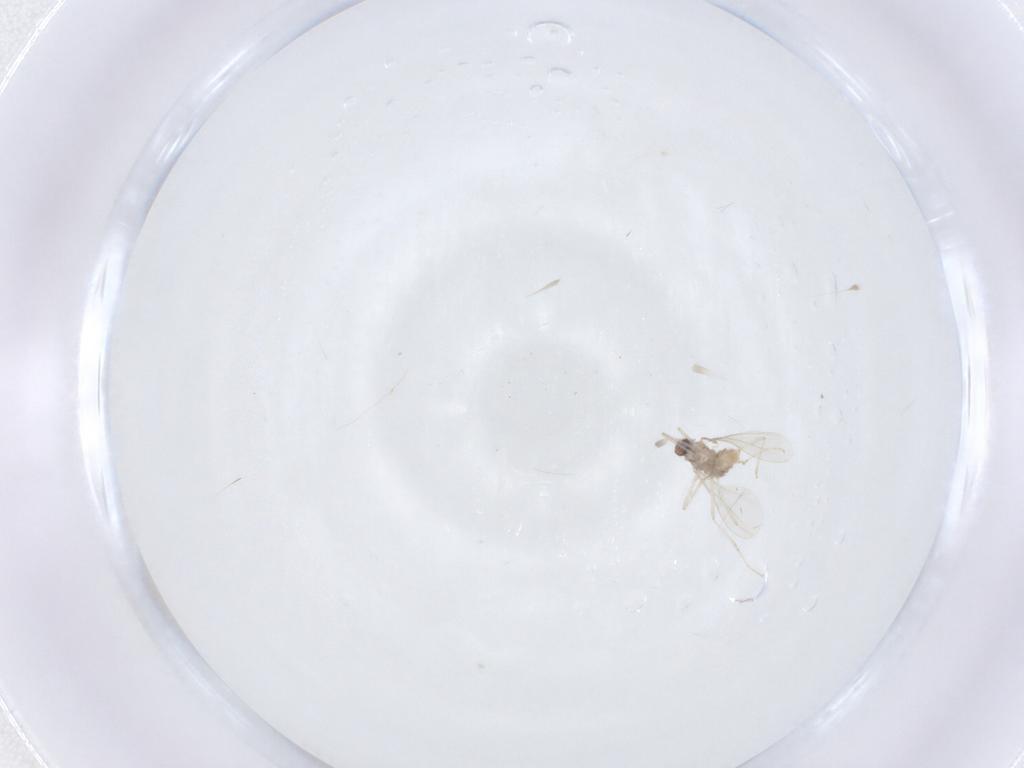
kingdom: Animalia
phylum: Arthropoda
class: Insecta
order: Diptera
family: Cecidomyiidae
